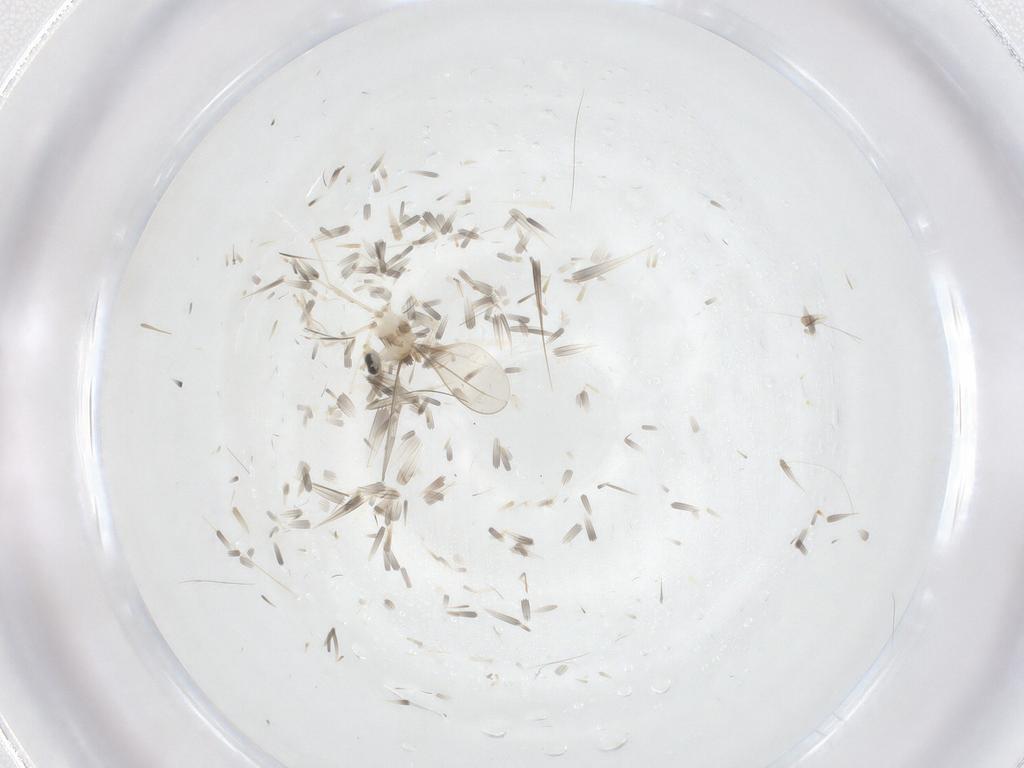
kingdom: Animalia
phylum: Arthropoda
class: Insecta
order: Diptera
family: Cecidomyiidae
